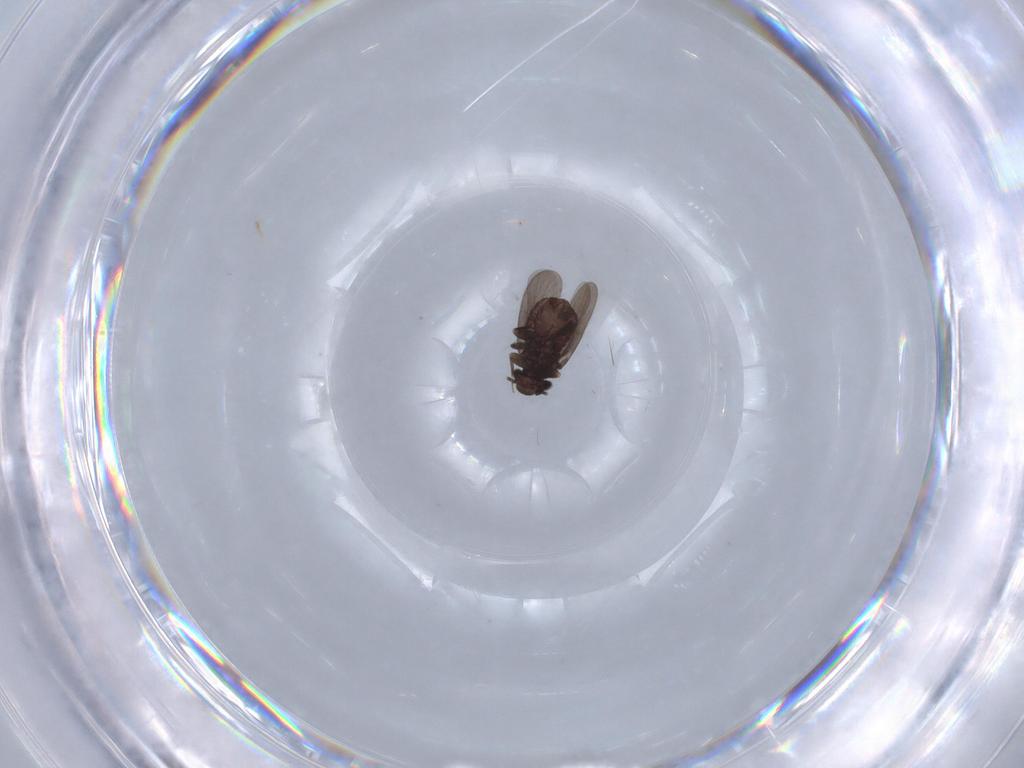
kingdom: Animalia
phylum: Arthropoda
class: Insecta
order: Psocodea
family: Psoquillidae
